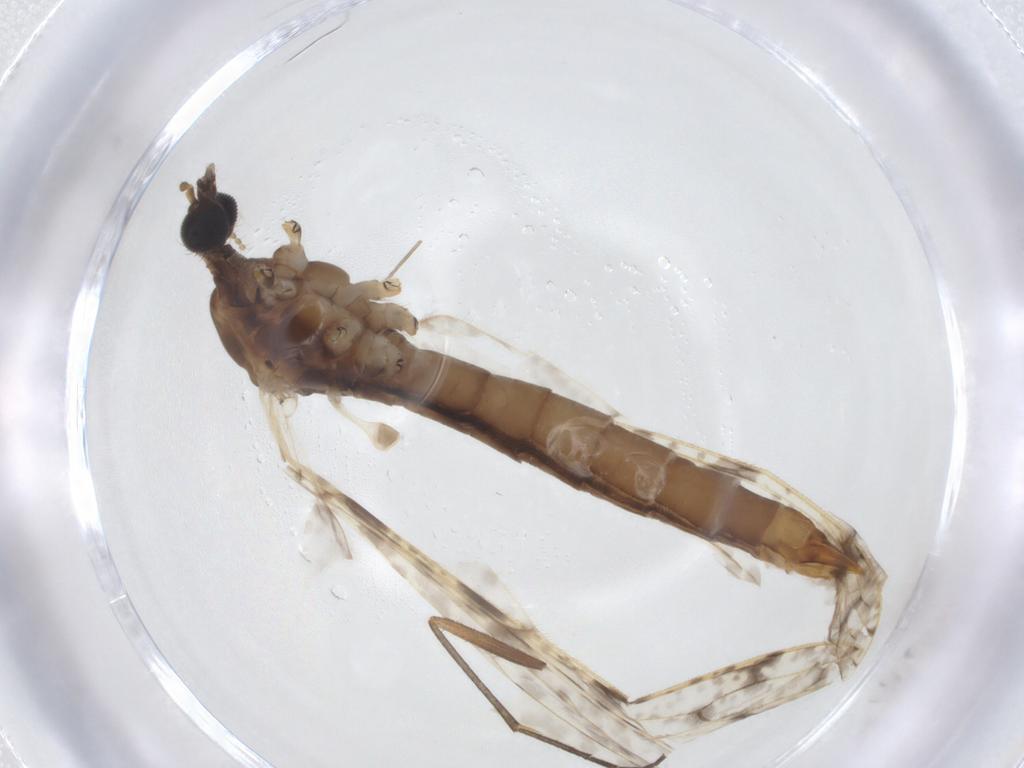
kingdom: Animalia
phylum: Arthropoda
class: Insecta
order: Diptera
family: Limoniidae
